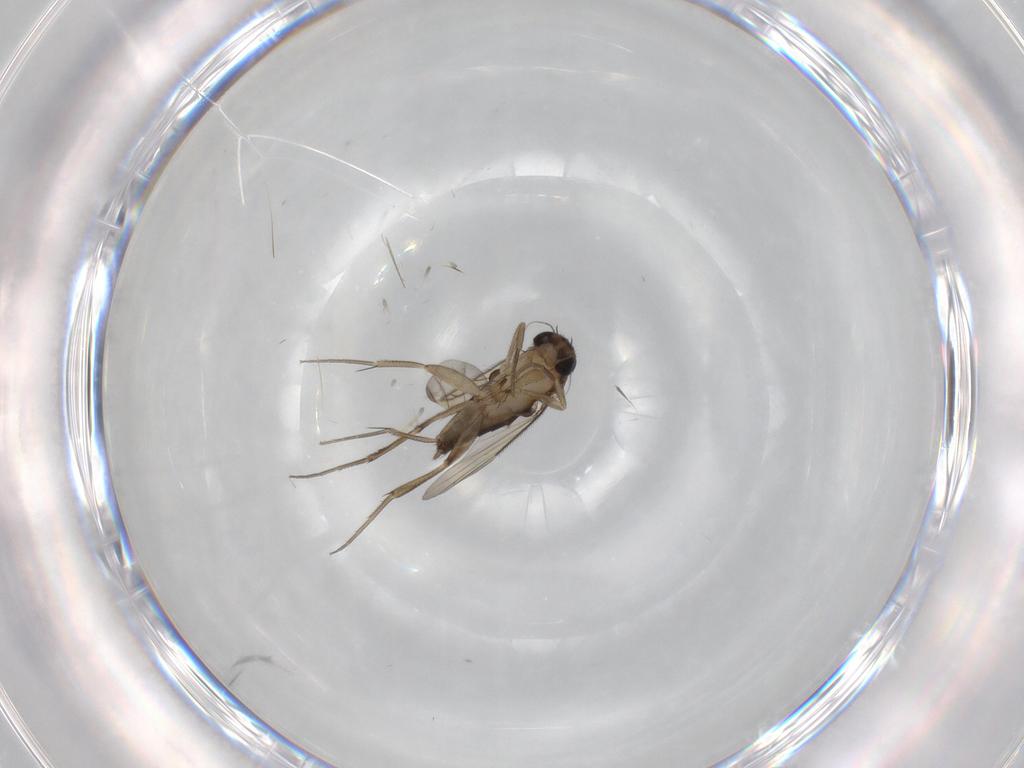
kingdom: Animalia
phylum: Arthropoda
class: Insecta
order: Diptera
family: Phoridae
